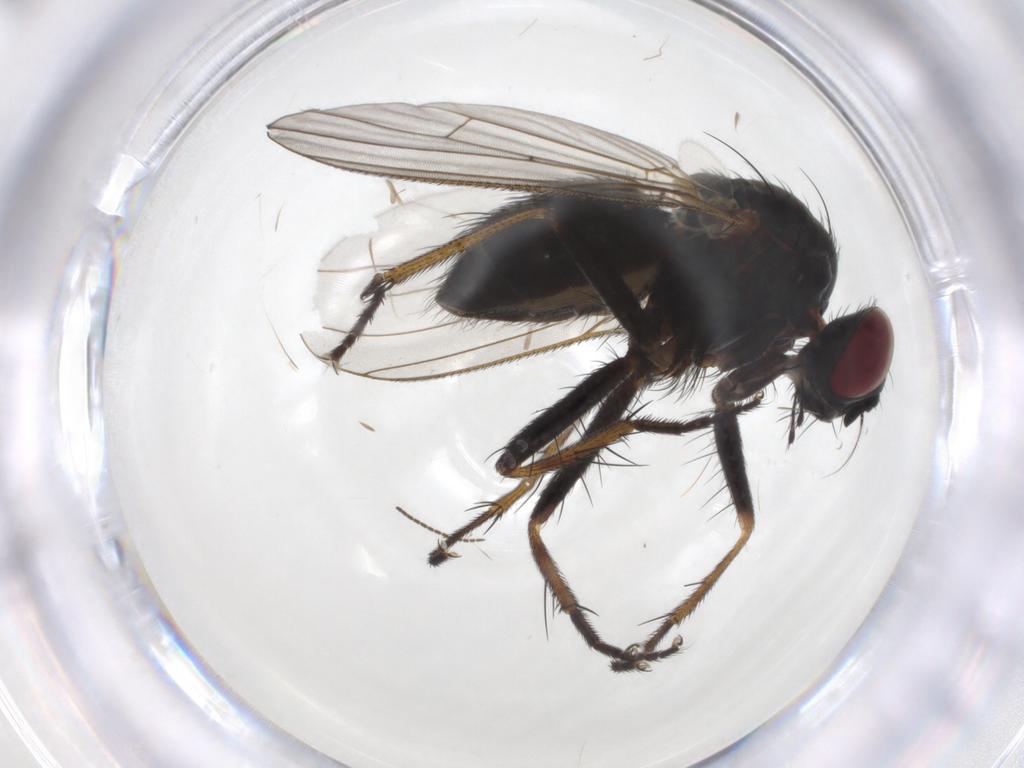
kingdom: Animalia
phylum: Arthropoda
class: Insecta
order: Diptera
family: Muscidae
